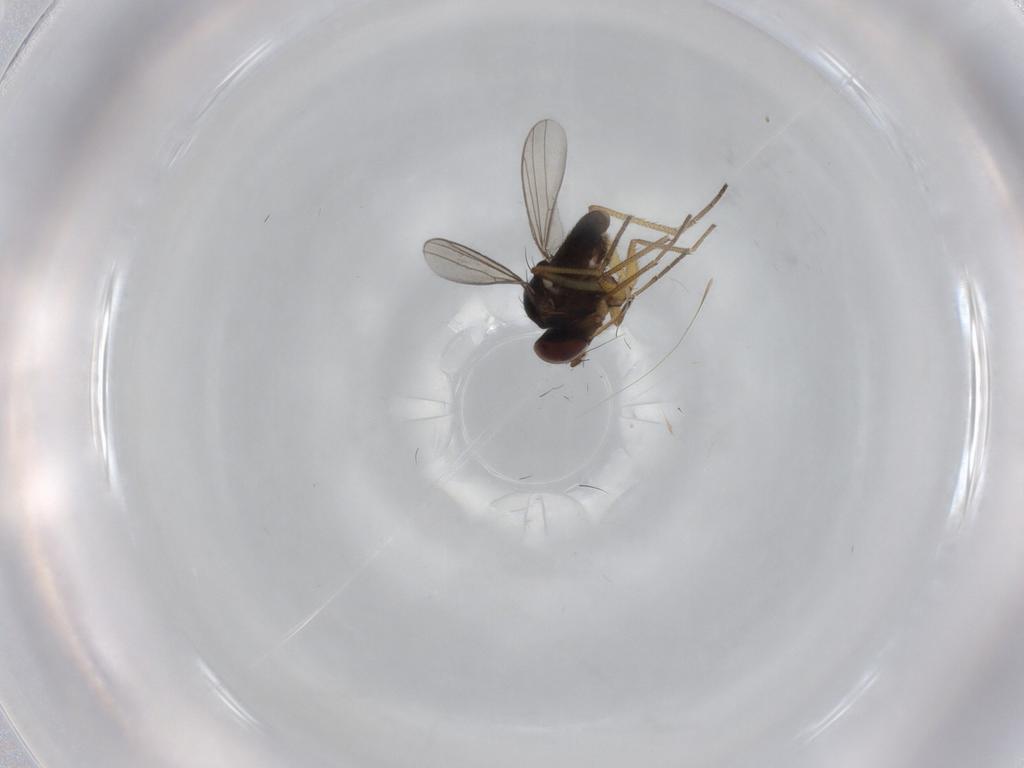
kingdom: Animalia
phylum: Arthropoda
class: Insecta
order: Diptera
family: Dolichopodidae
